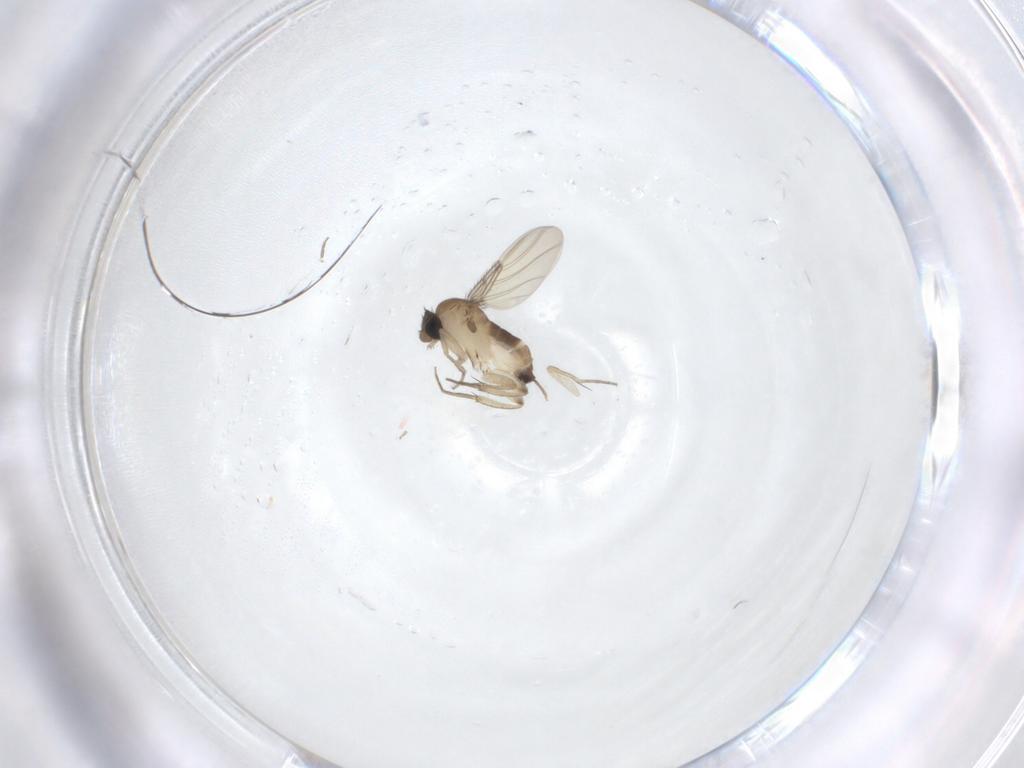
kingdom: Animalia
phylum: Arthropoda
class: Insecta
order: Diptera
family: Phoridae
